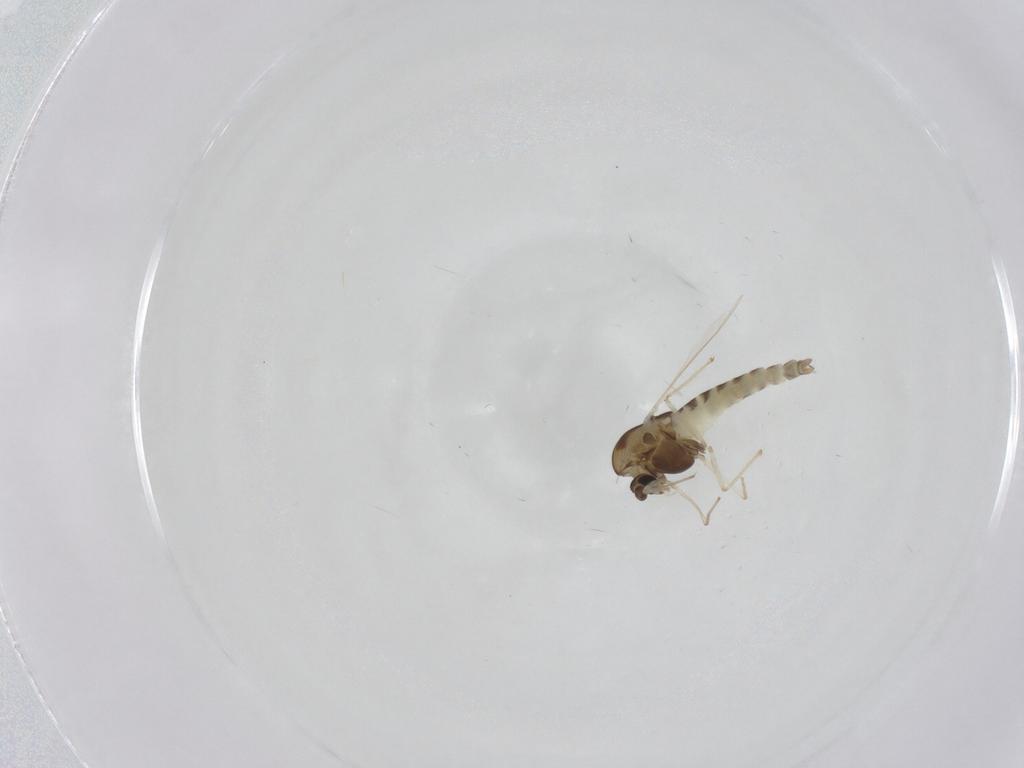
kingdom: Animalia
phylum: Arthropoda
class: Insecta
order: Diptera
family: Chironomidae
